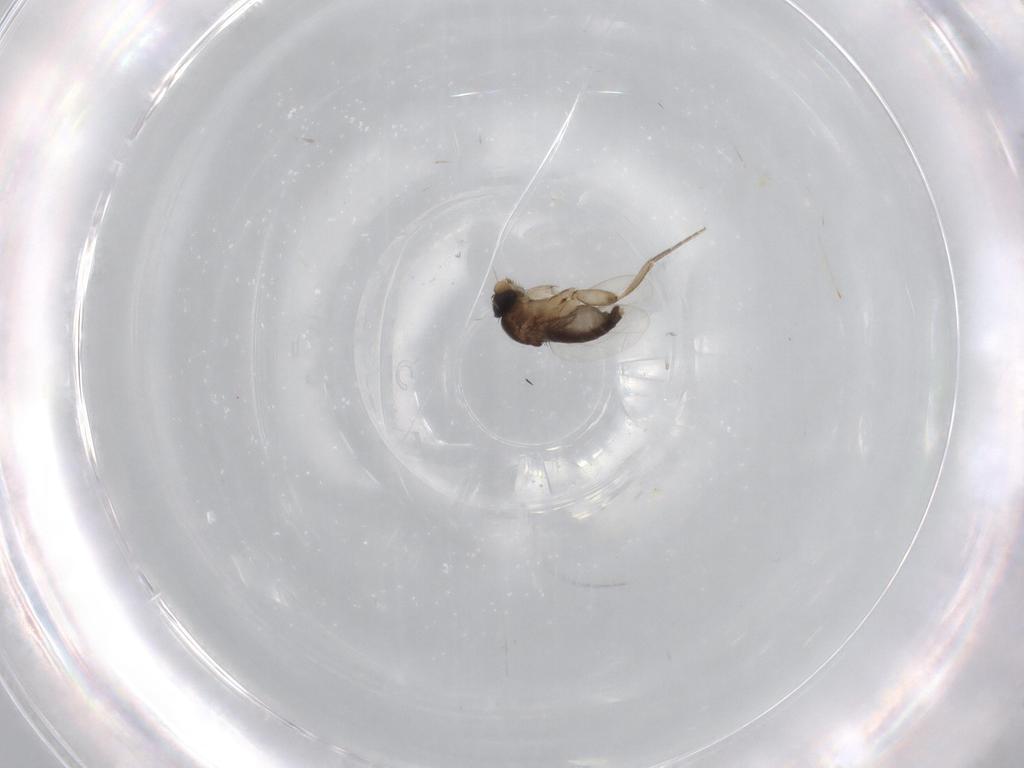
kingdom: Animalia
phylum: Arthropoda
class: Insecta
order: Diptera
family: Phoridae
